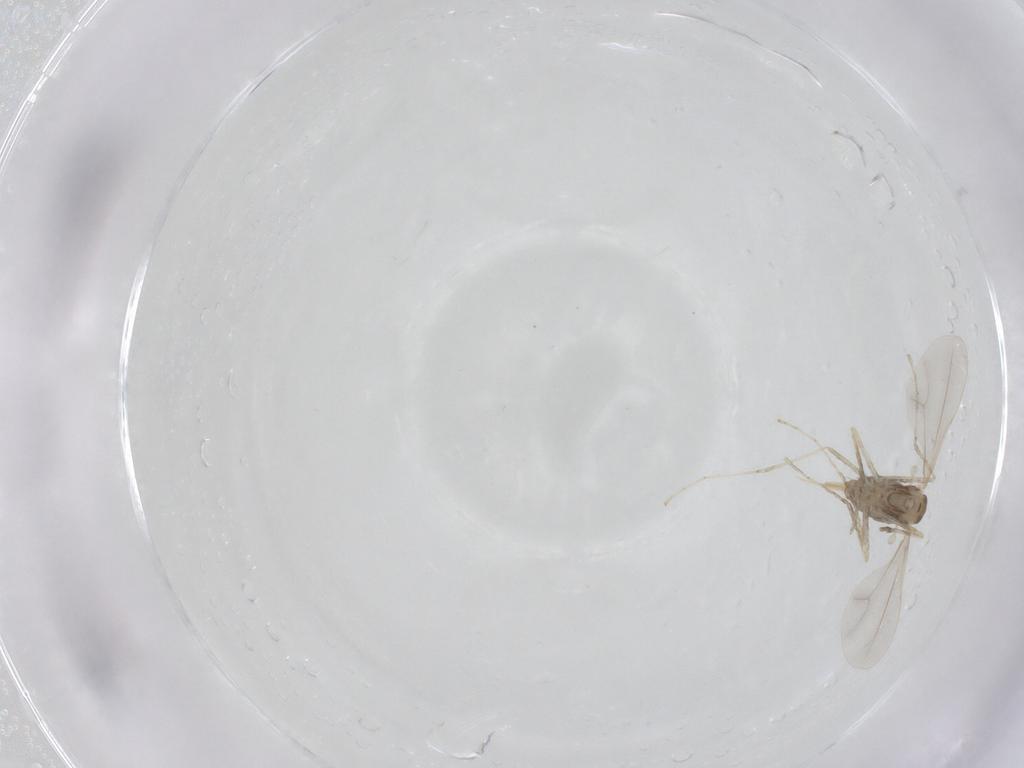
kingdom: Animalia
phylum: Arthropoda
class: Insecta
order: Diptera
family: Cecidomyiidae
